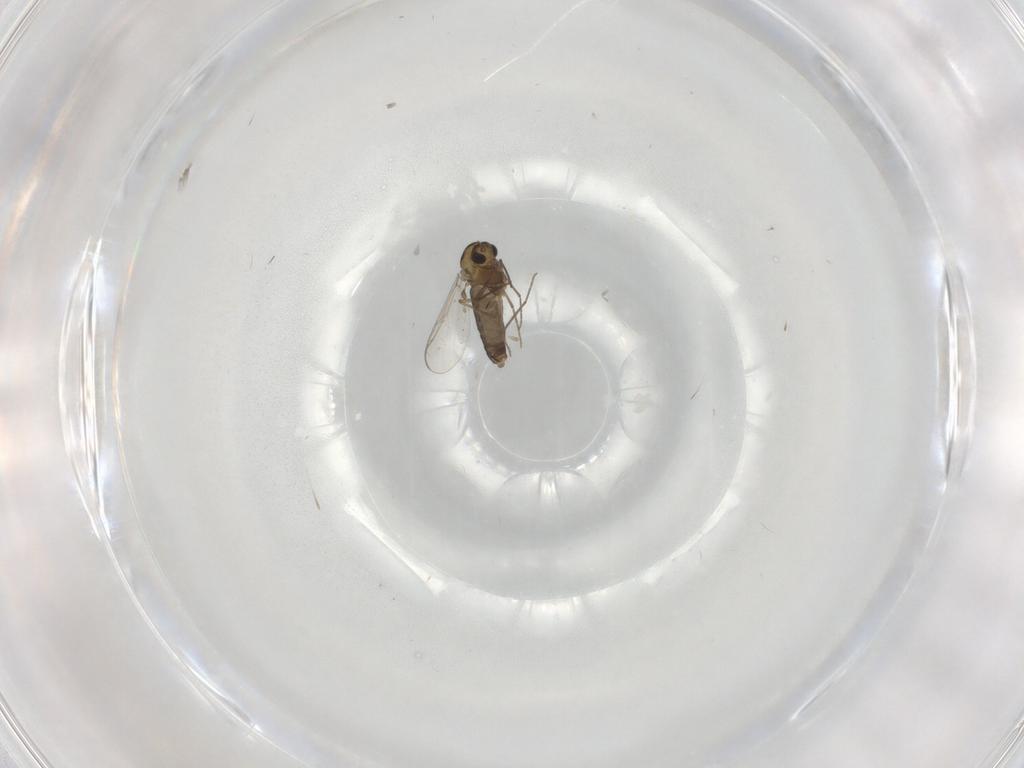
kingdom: Animalia
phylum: Arthropoda
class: Insecta
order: Diptera
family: Chironomidae
